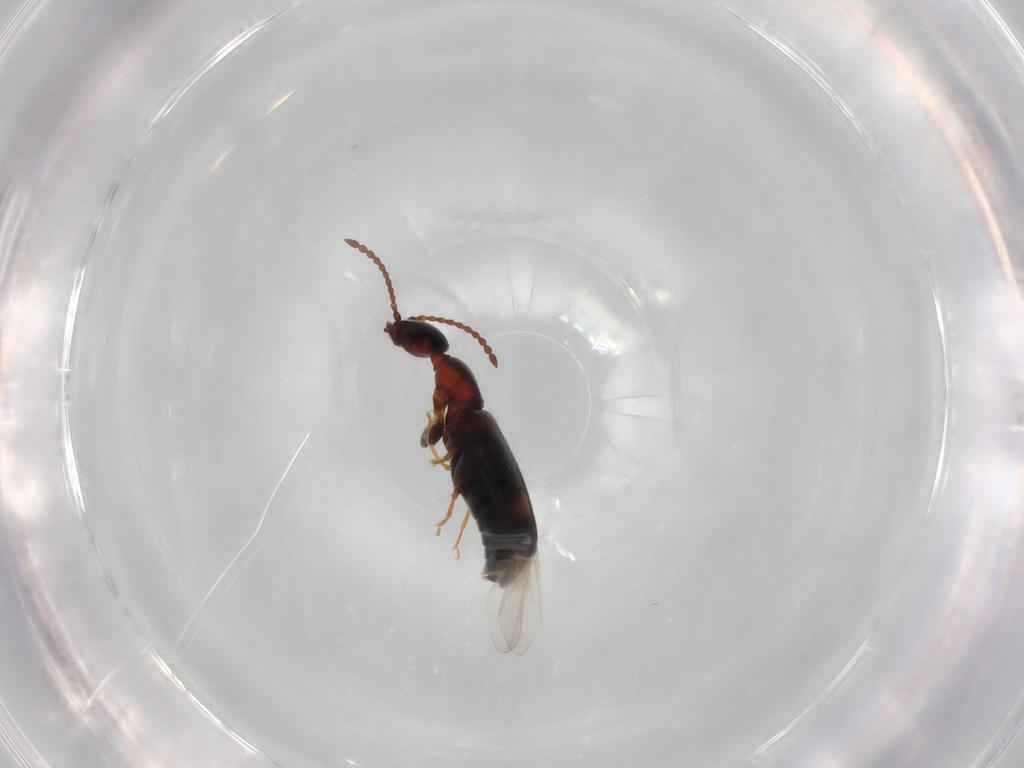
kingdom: Animalia
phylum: Arthropoda
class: Insecta
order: Coleoptera
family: Anthicidae
